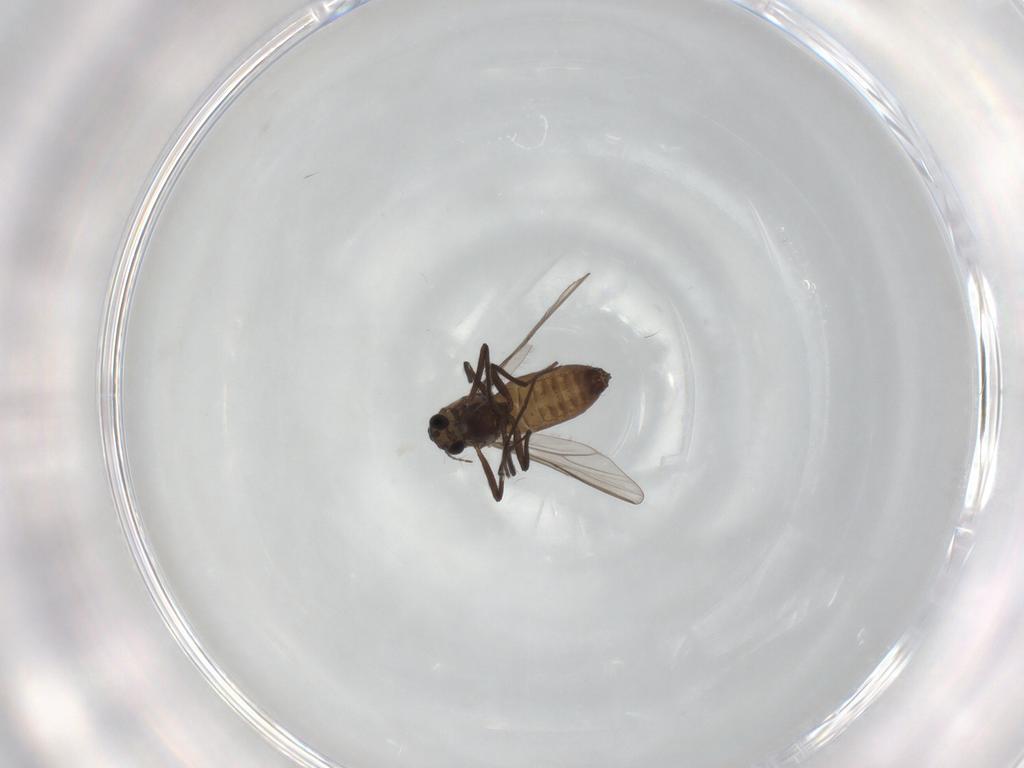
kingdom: Animalia
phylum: Arthropoda
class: Insecta
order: Diptera
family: Chironomidae
